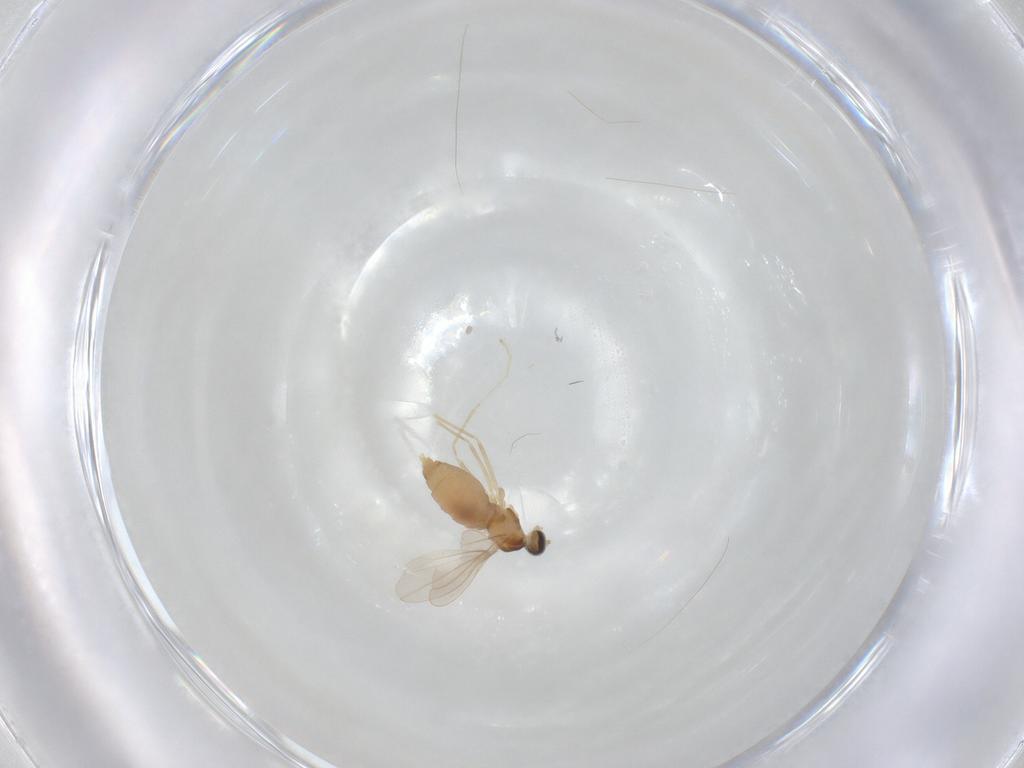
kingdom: Animalia
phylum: Arthropoda
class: Insecta
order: Diptera
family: Cecidomyiidae
